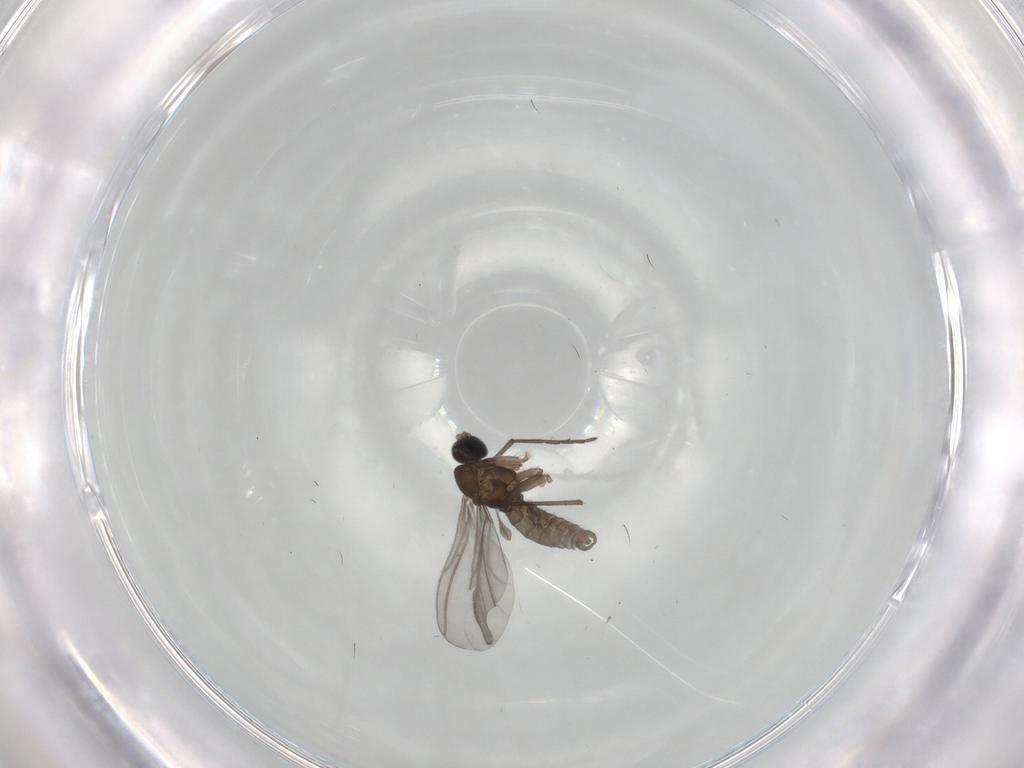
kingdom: Animalia
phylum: Arthropoda
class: Insecta
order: Diptera
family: Sciaridae
